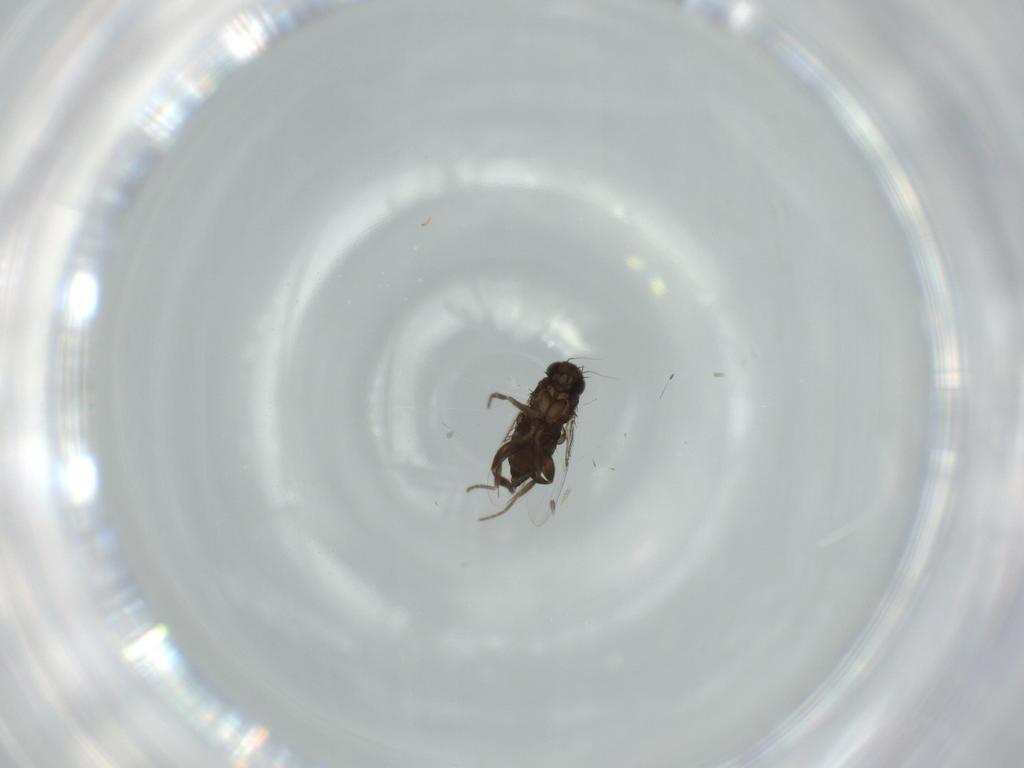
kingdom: Animalia
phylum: Arthropoda
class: Insecta
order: Diptera
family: Phoridae
